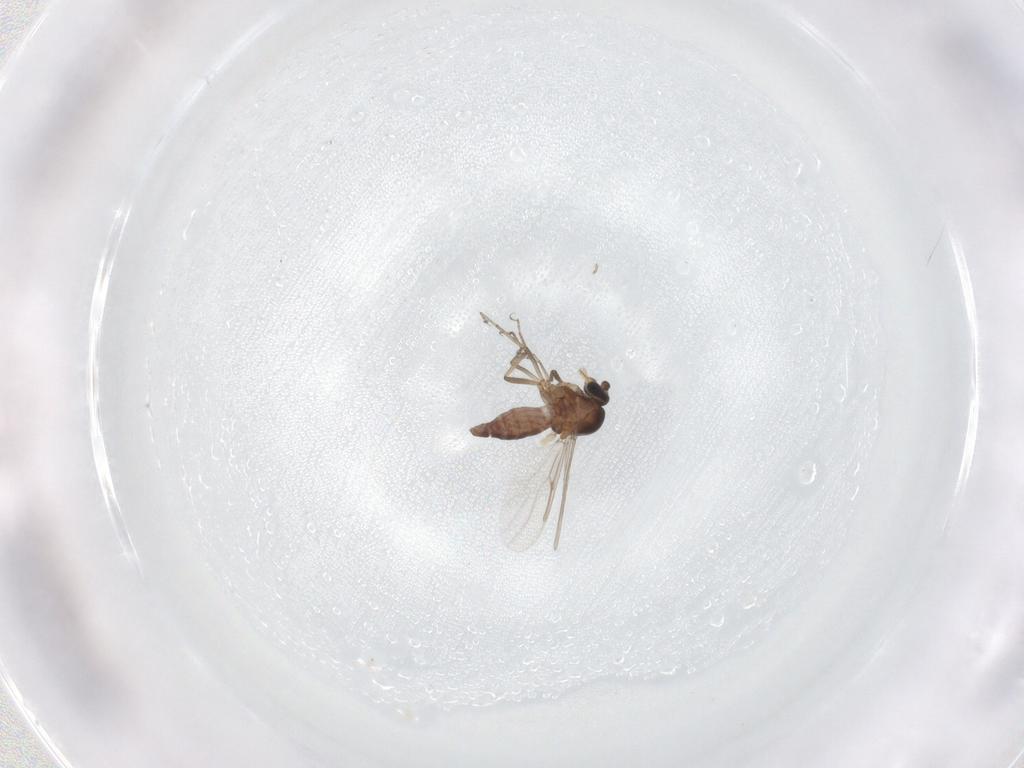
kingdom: Animalia
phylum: Arthropoda
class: Insecta
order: Diptera
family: Ceratopogonidae
